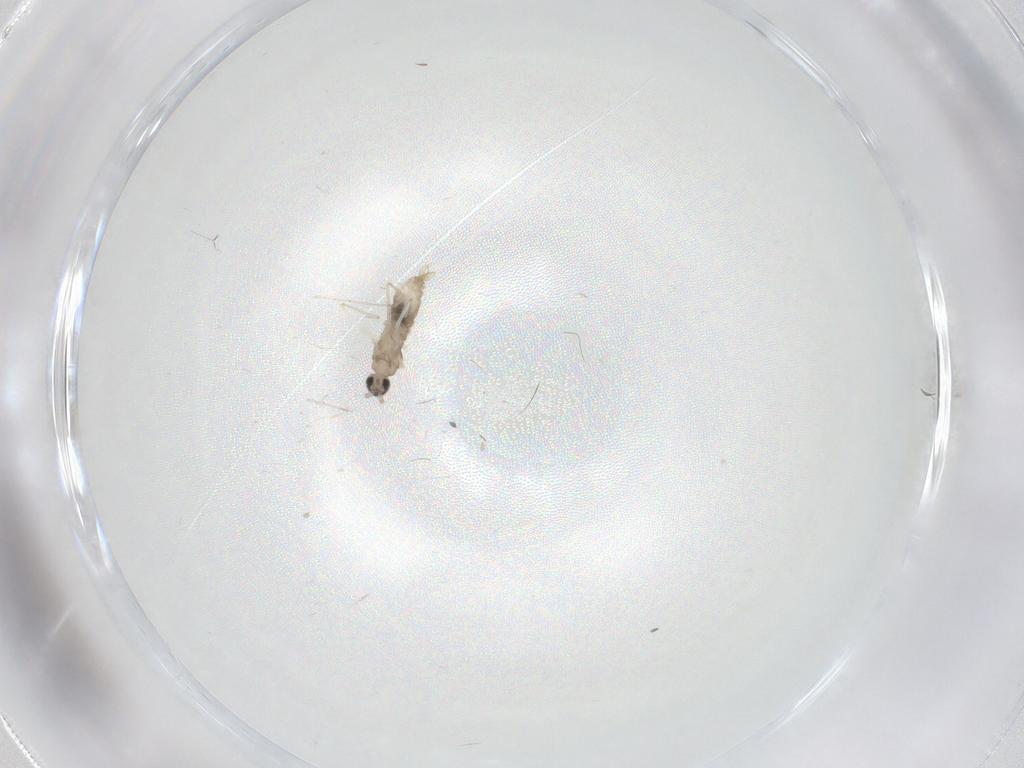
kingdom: Animalia
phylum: Arthropoda
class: Insecta
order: Diptera
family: Cecidomyiidae
